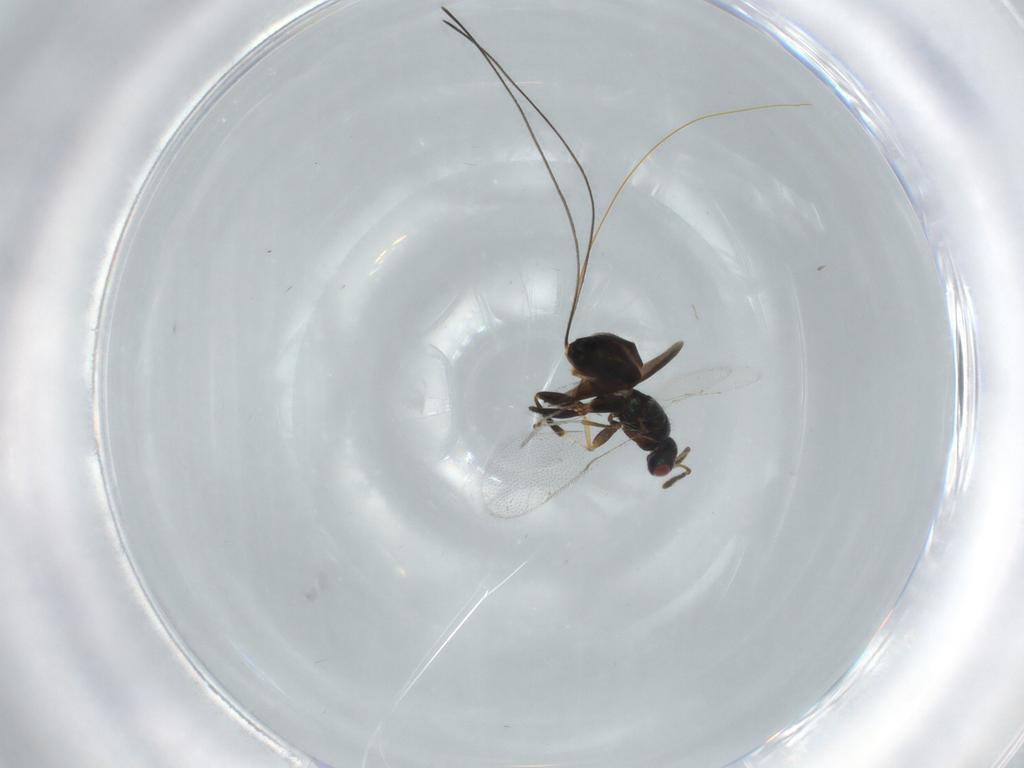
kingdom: Animalia
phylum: Arthropoda
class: Insecta
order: Hymenoptera
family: Torymidae
